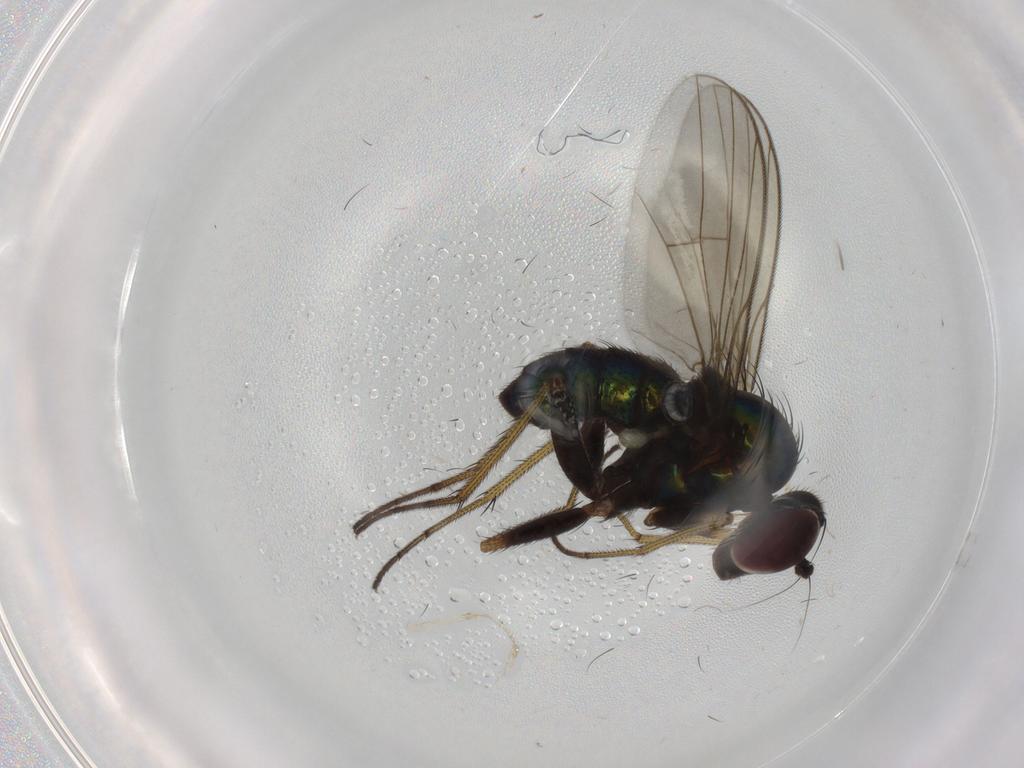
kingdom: Animalia
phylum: Arthropoda
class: Insecta
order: Diptera
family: Dolichopodidae
